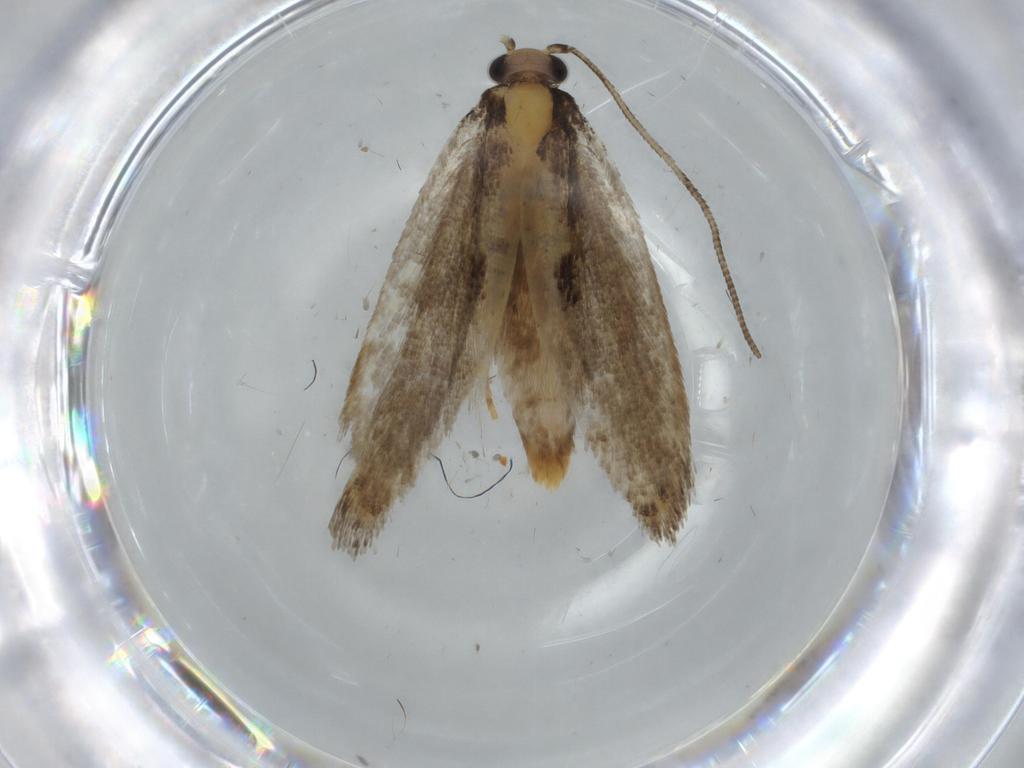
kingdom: Animalia
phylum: Arthropoda
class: Insecta
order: Lepidoptera
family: Tineidae
